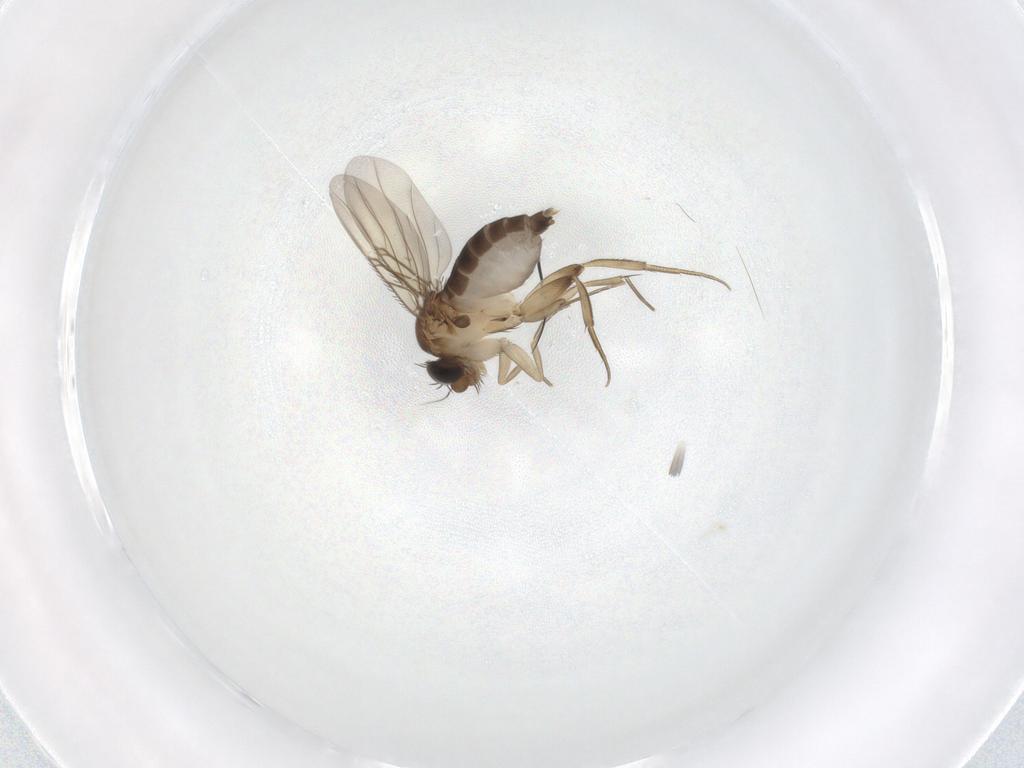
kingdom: Animalia
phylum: Arthropoda
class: Insecta
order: Diptera
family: Phoridae
